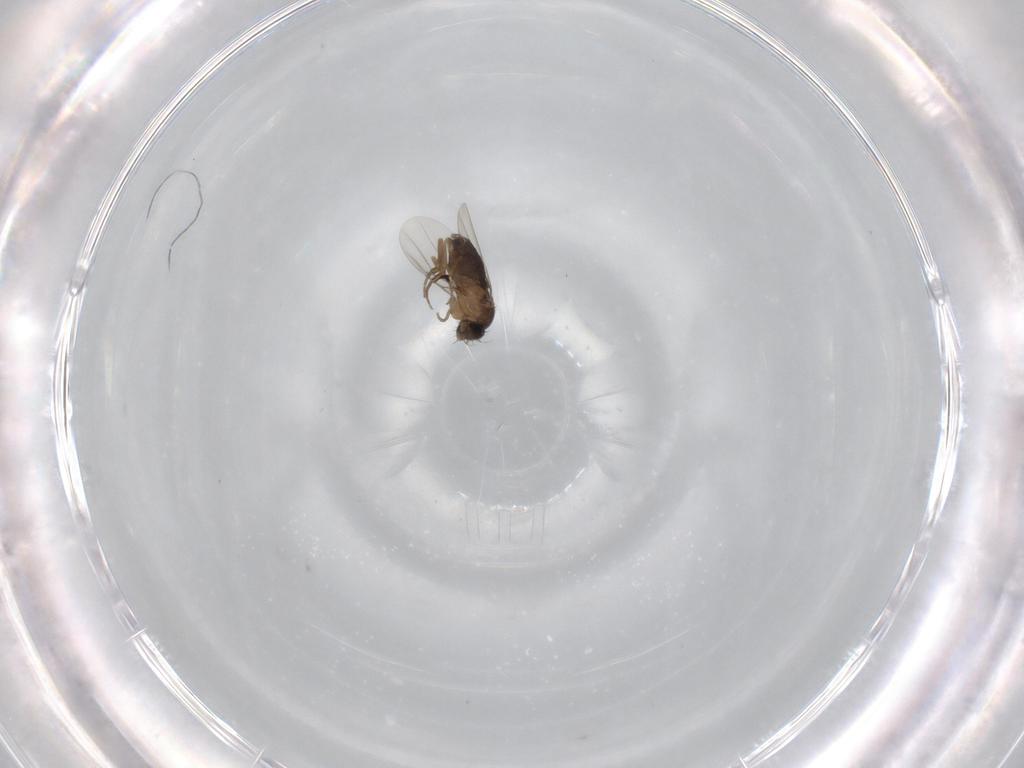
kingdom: Animalia
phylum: Arthropoda
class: Insecta
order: Diptera
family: Phoridae
